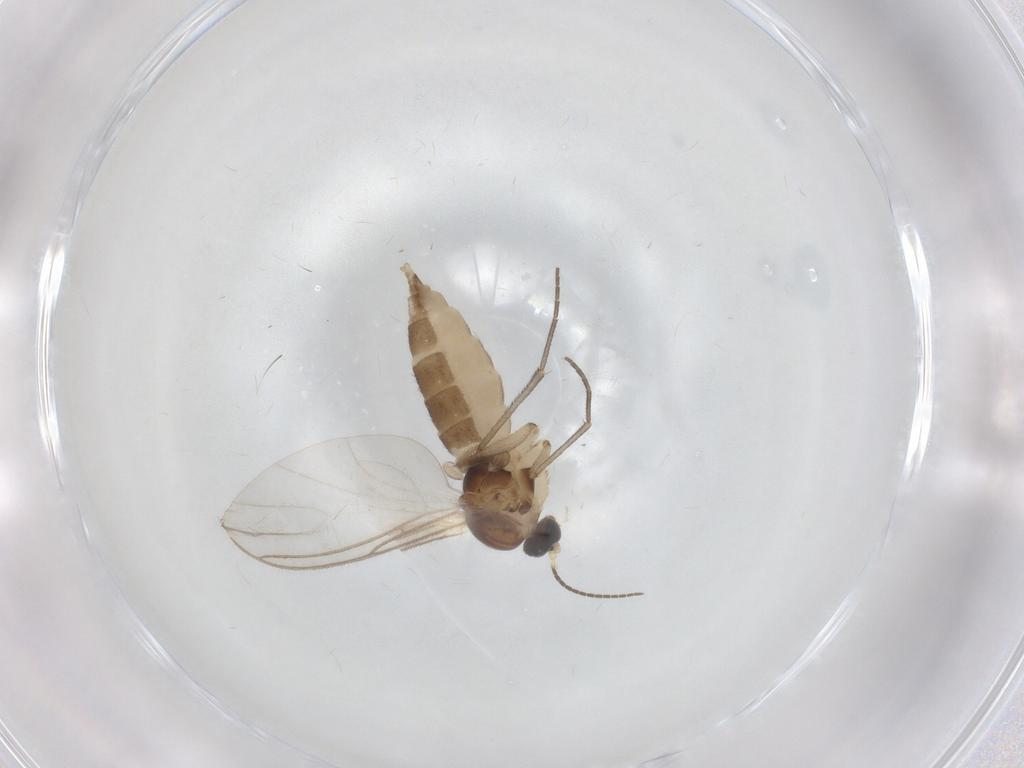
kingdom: Animalia
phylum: Arthropoda
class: Insecta
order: Diptera
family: Sciaridae
